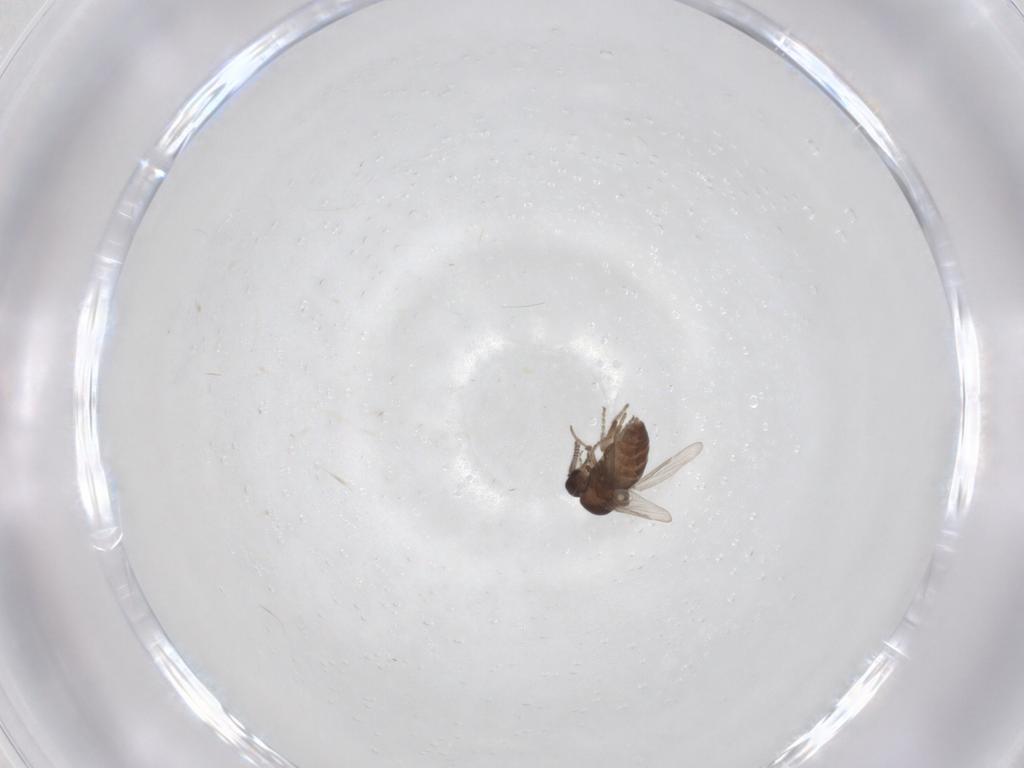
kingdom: Animalia
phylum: Arthropoda
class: Insecta
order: Diptera
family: Ceratopogonidae
